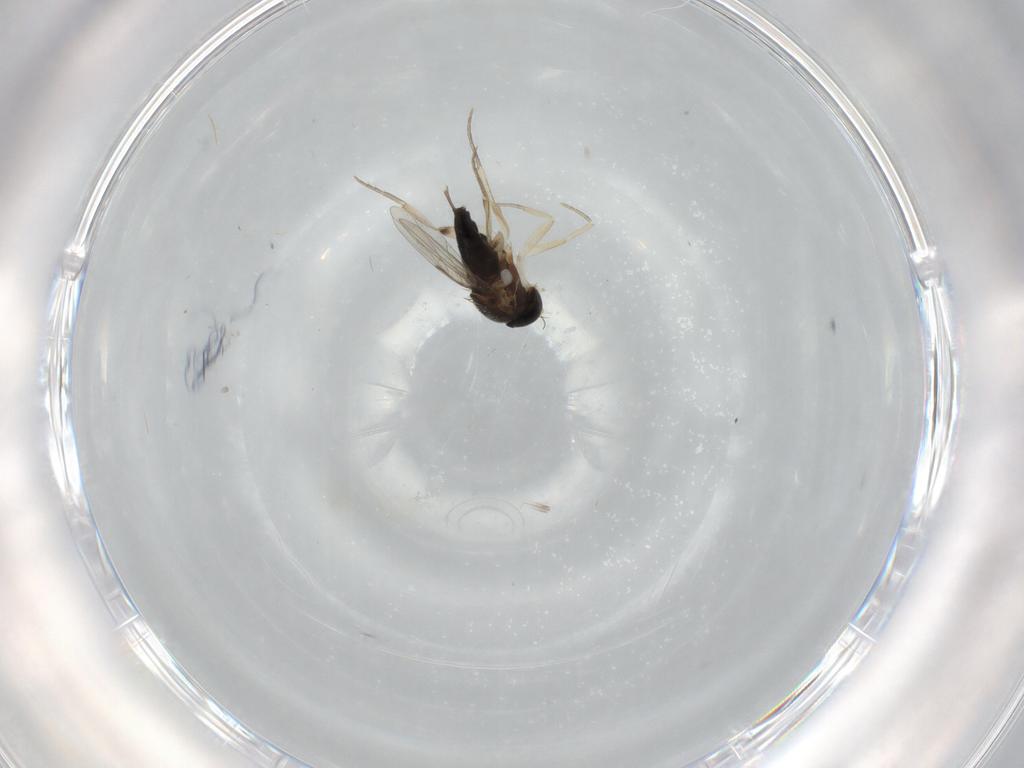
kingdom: Animalia
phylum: Arthropoda
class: Insecta
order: Diptera
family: Phoridae
